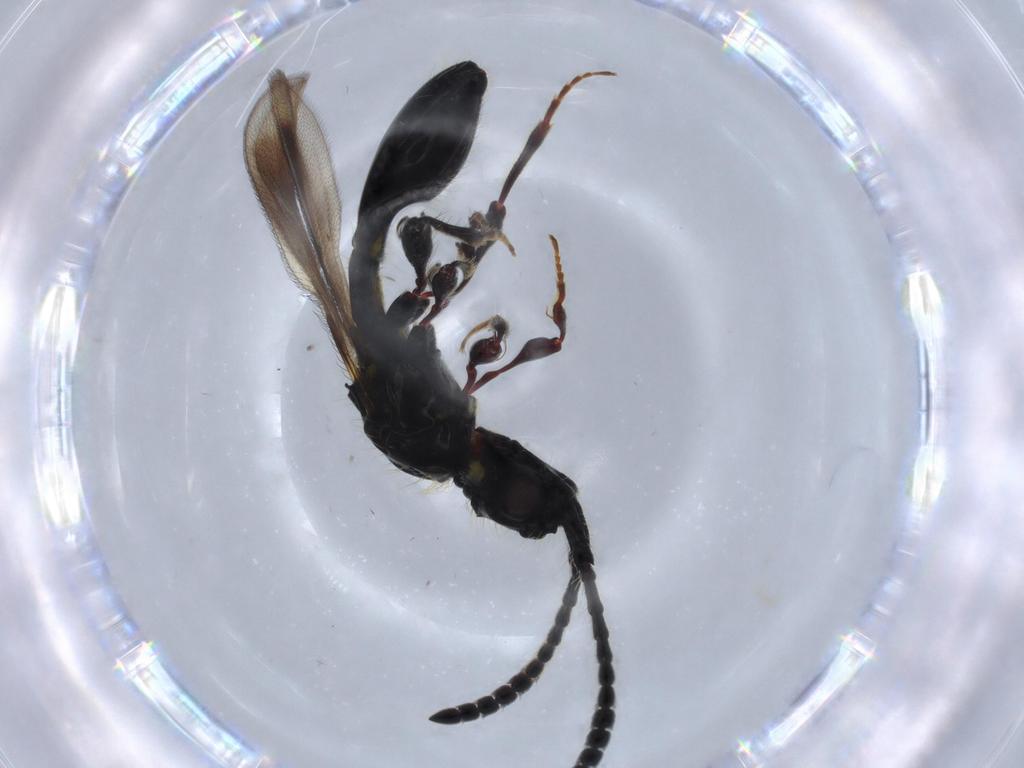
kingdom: Animalia
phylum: Arthropoda
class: Insecta
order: Hymenoptera
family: Diapriidae
